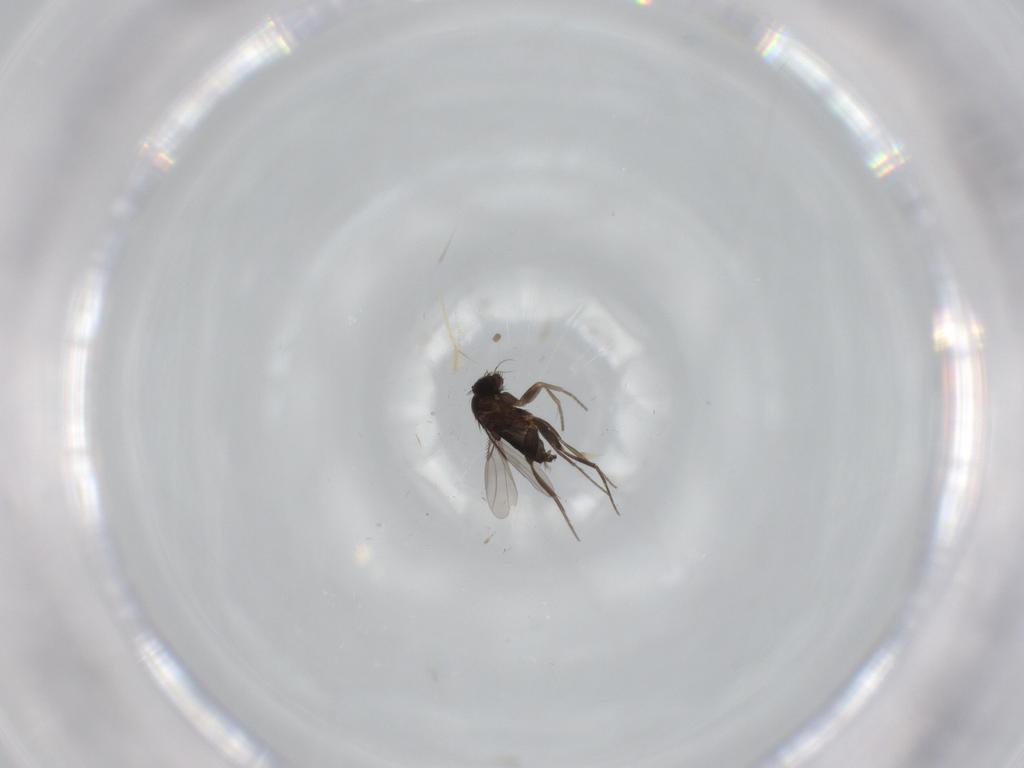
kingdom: Animalia
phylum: Arthropoda
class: Insecta
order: Diptera
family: Phoridae
